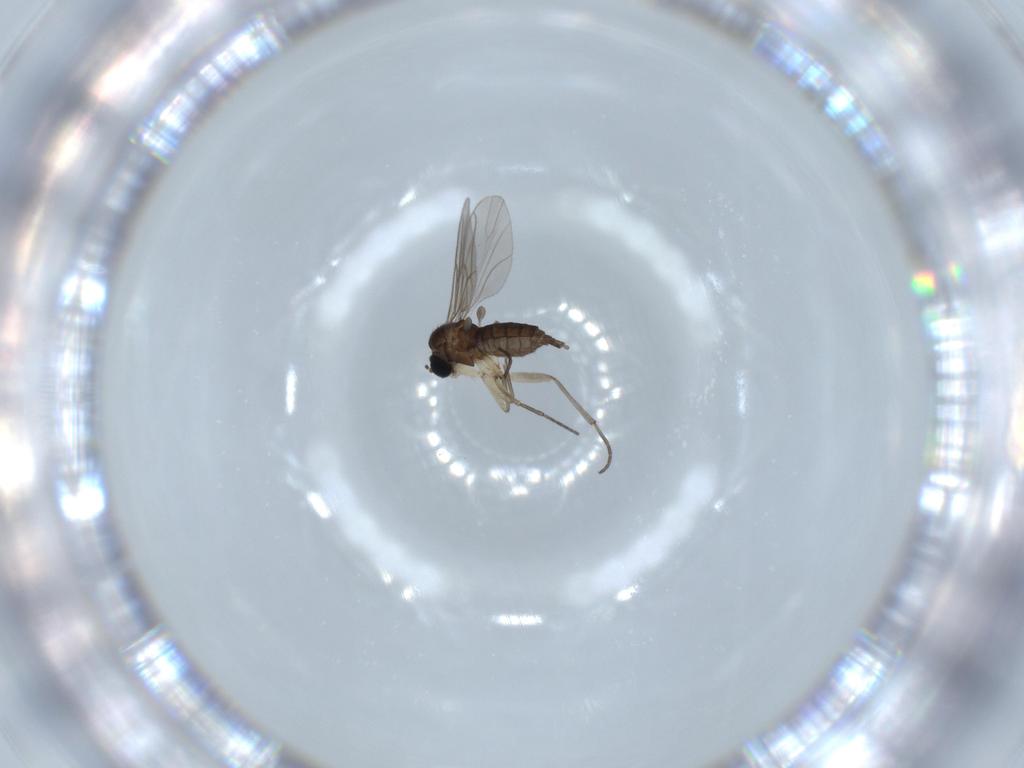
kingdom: Animalia
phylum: Arthropoda
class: Insecta
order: Diptera
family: Sciaridae
